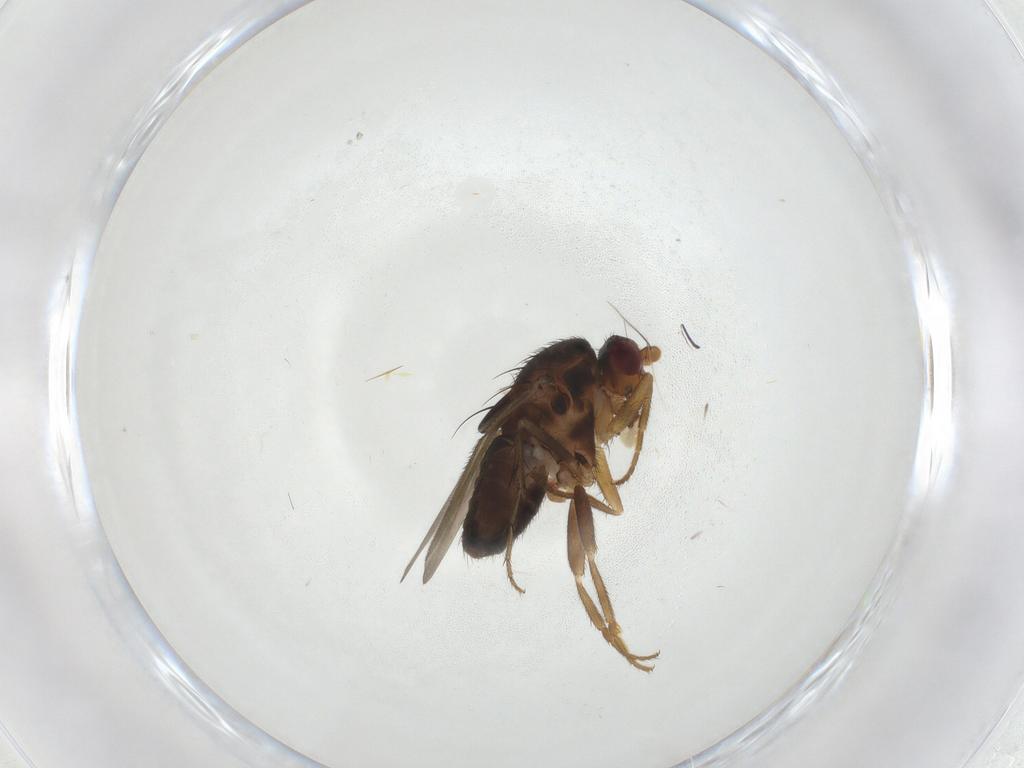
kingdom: Animalia
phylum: Arthropoda
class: Insecta
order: Diptera
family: Sphaeroceridae
